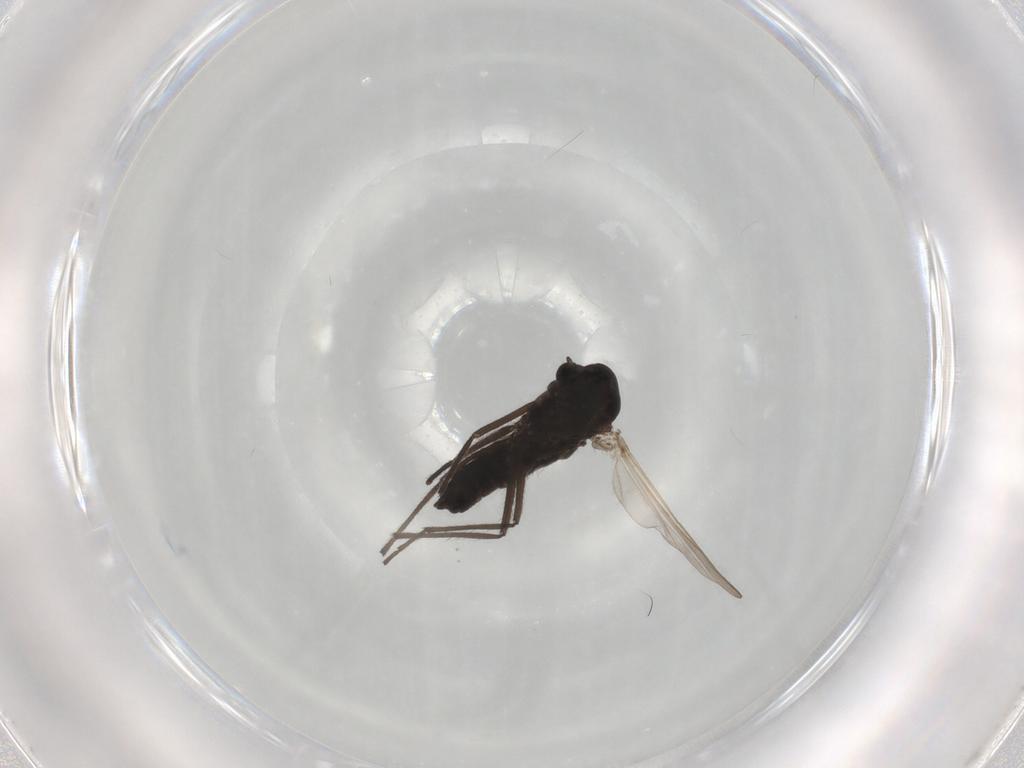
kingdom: Animalia
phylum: Arthropoda
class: Insecta
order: Diptera
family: Chironomidae
